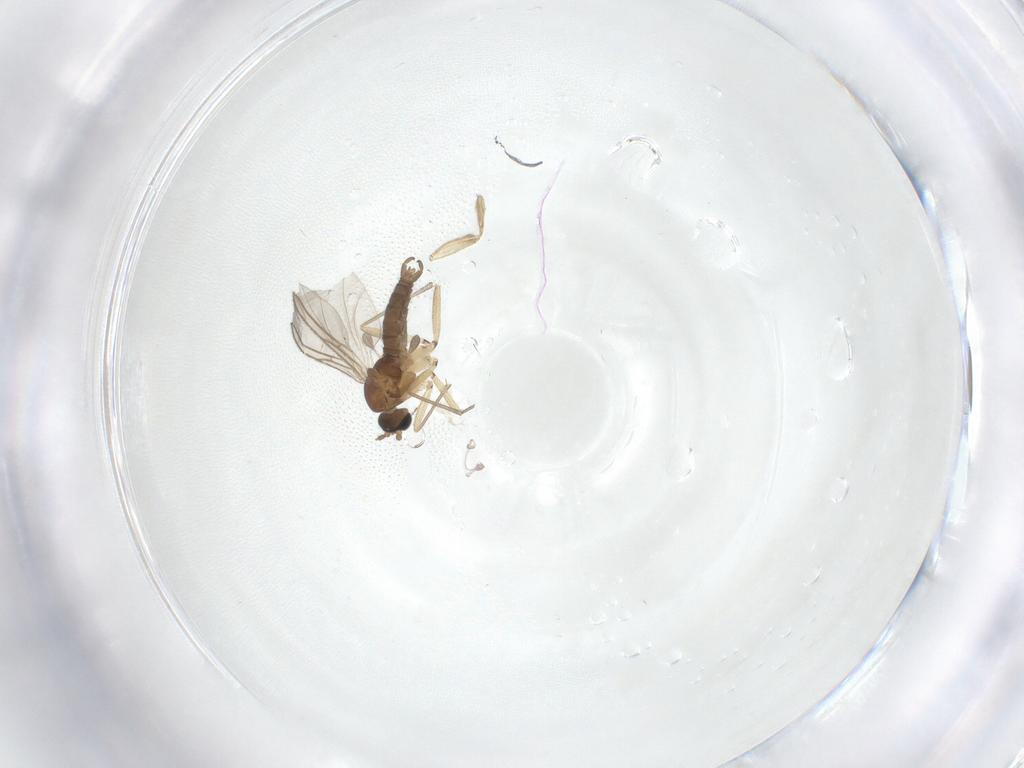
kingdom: Animalia
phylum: Arthropoda
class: Insecta
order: Diptera
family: Sciaridae
